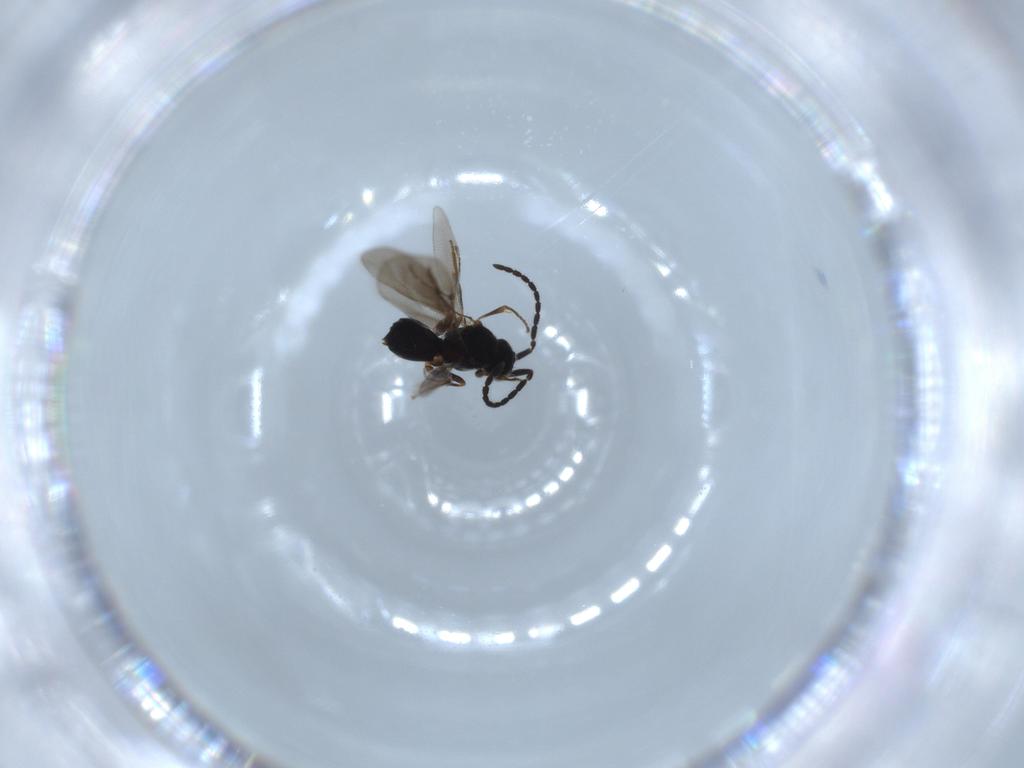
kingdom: Animalia
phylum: Arthropoda
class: Insecta
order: Hymenoptera
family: Megaspilidae
